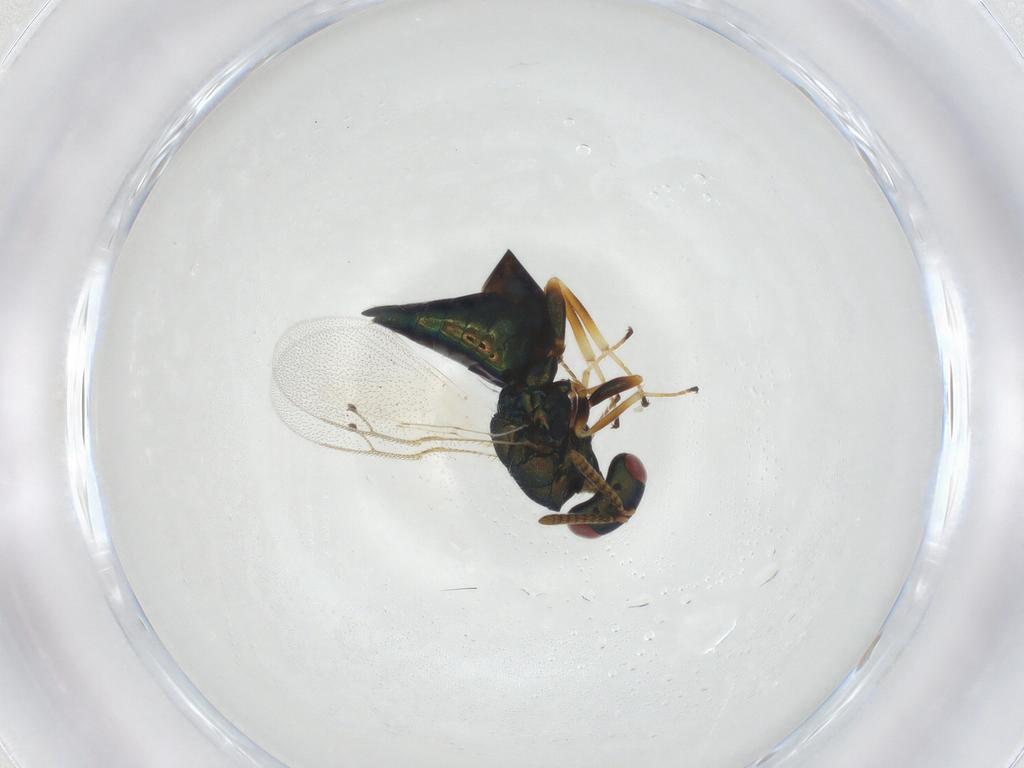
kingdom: Animalia
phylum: Arthropoda
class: Insecta
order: Hymenoptera
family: Pteromalidae
